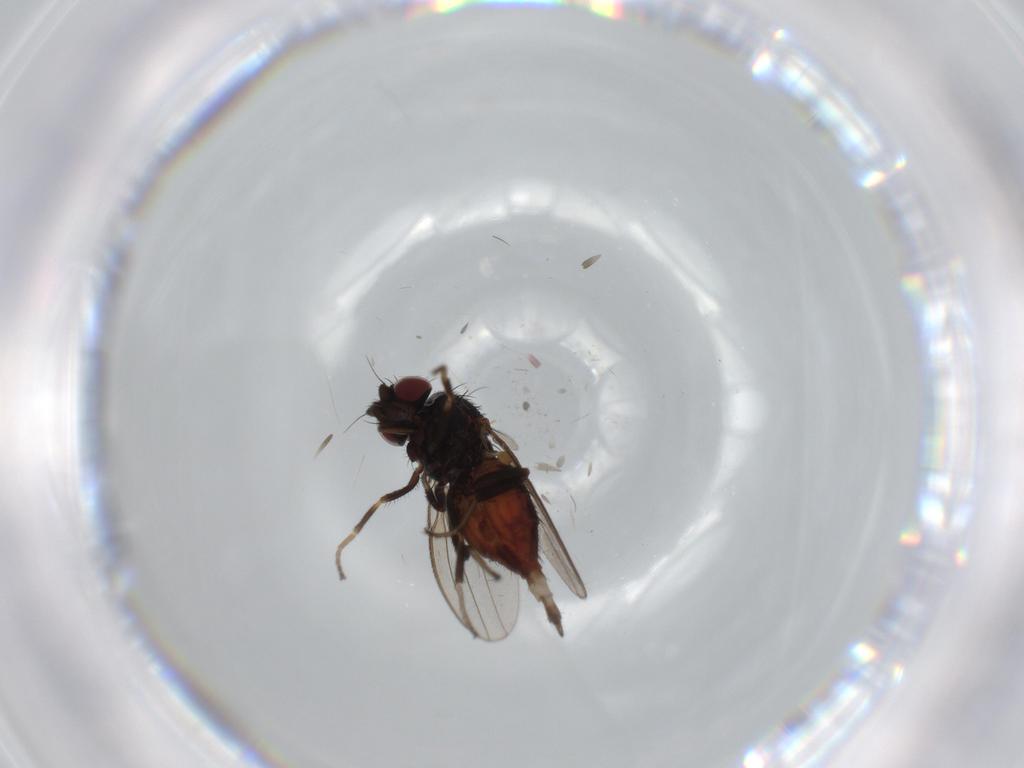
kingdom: Animalia
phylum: Arthropoda
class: Insecta
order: Diptera
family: Milichiidae
